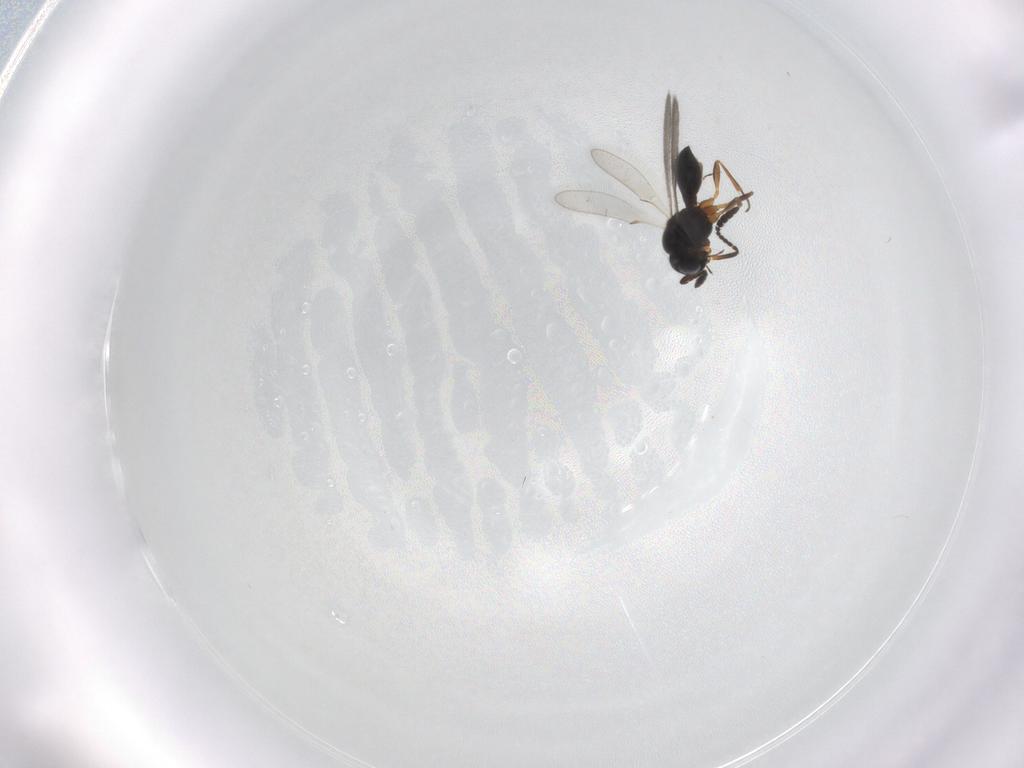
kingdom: Animalia
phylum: Arthropoda
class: Insecta
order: Hymenoptera
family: Scelionidae
